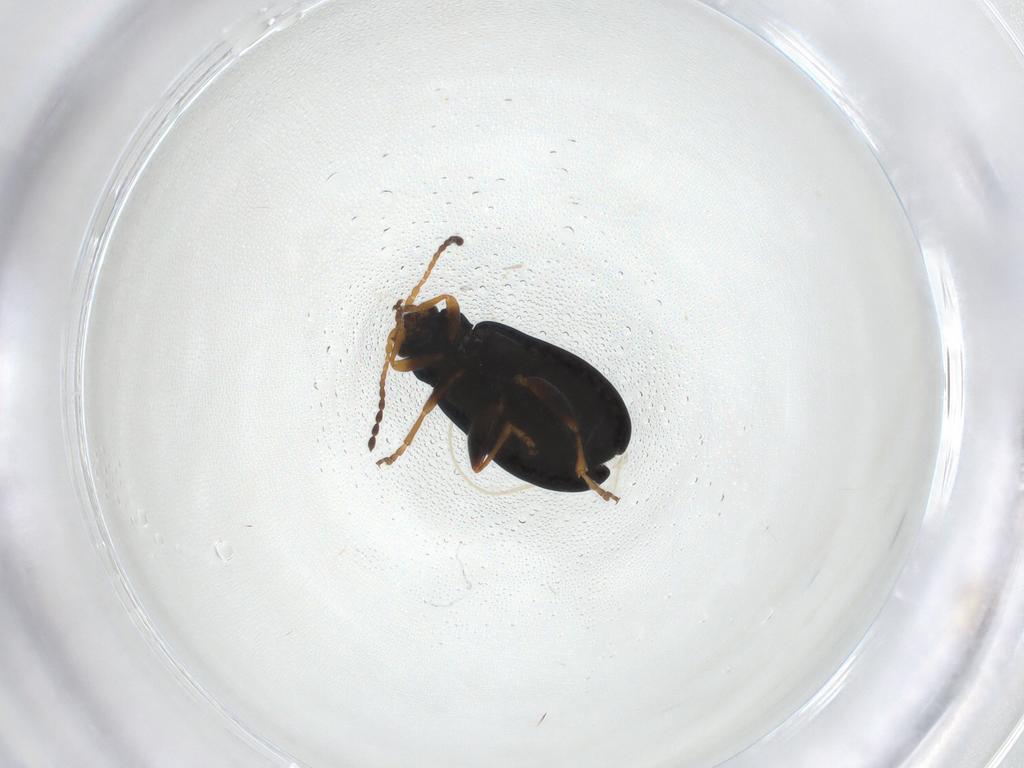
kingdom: Animalia
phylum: Arthropoda
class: Insecta
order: Coleoptera
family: Chrysomelidae
